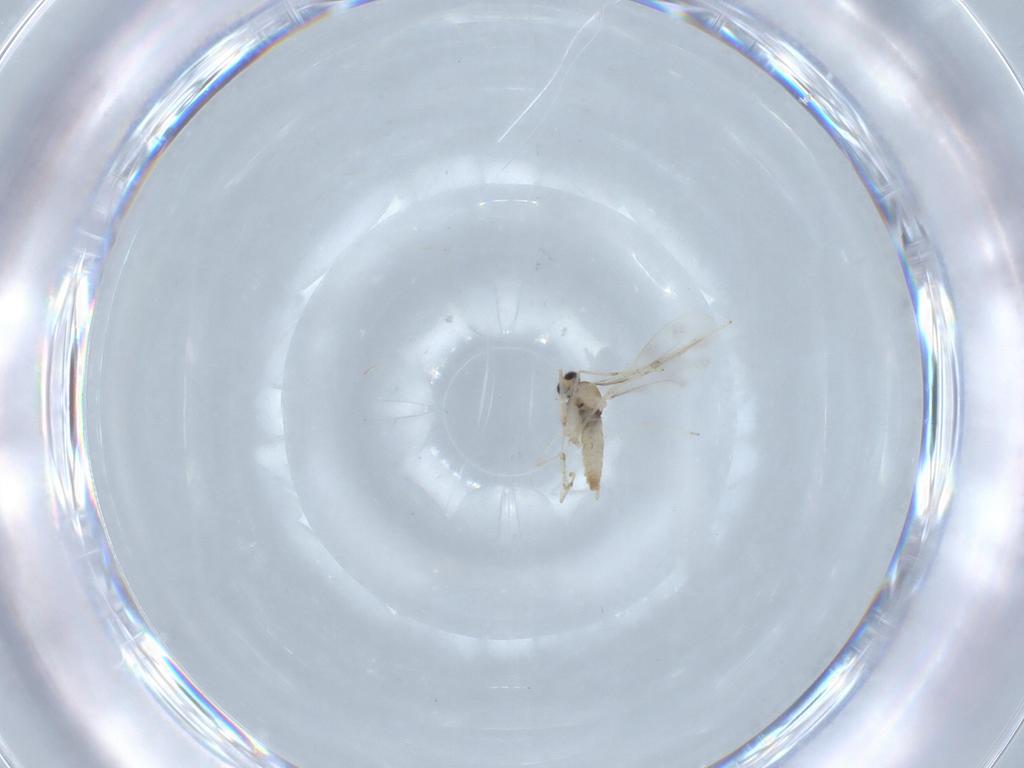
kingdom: Animalia
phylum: Arthropoda
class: Insecta
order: Diptera
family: Cecidomyiidae
